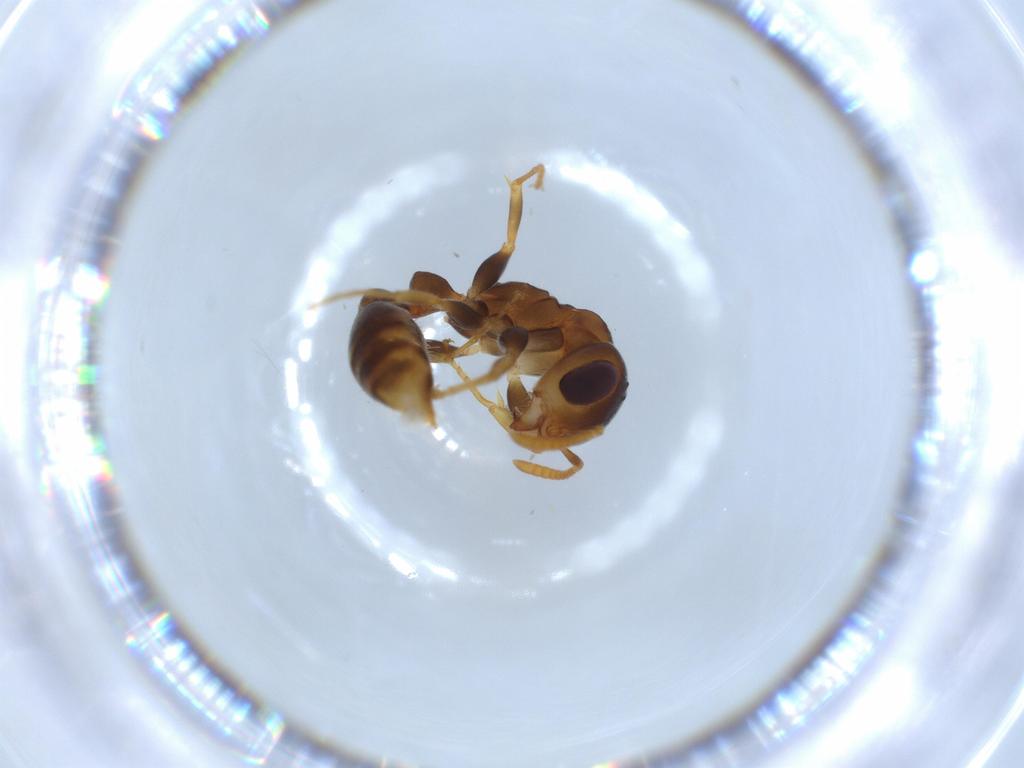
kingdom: Animalia
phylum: Arthropoda
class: Insecta
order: Hymenoptera
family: Formicidae
